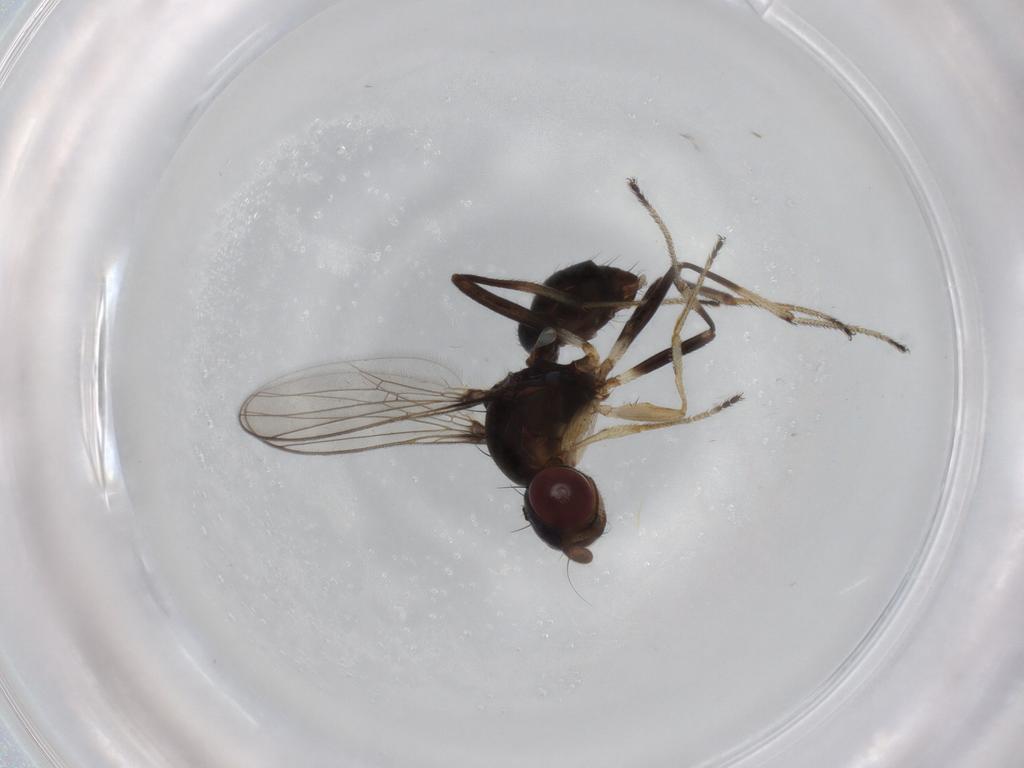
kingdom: Animalia
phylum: Arthropoda
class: Insecta
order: Diptera
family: Sepsidae
